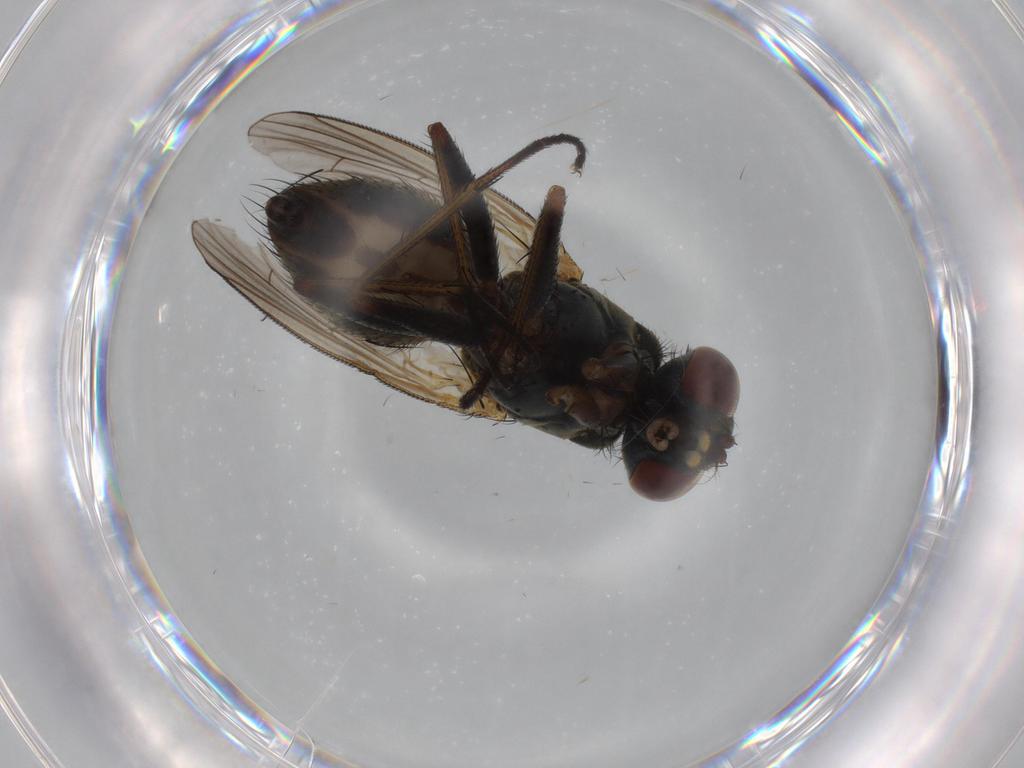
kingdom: Animalia
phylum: Arthropoda
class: Insecta
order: Diptera
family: Muscidae
